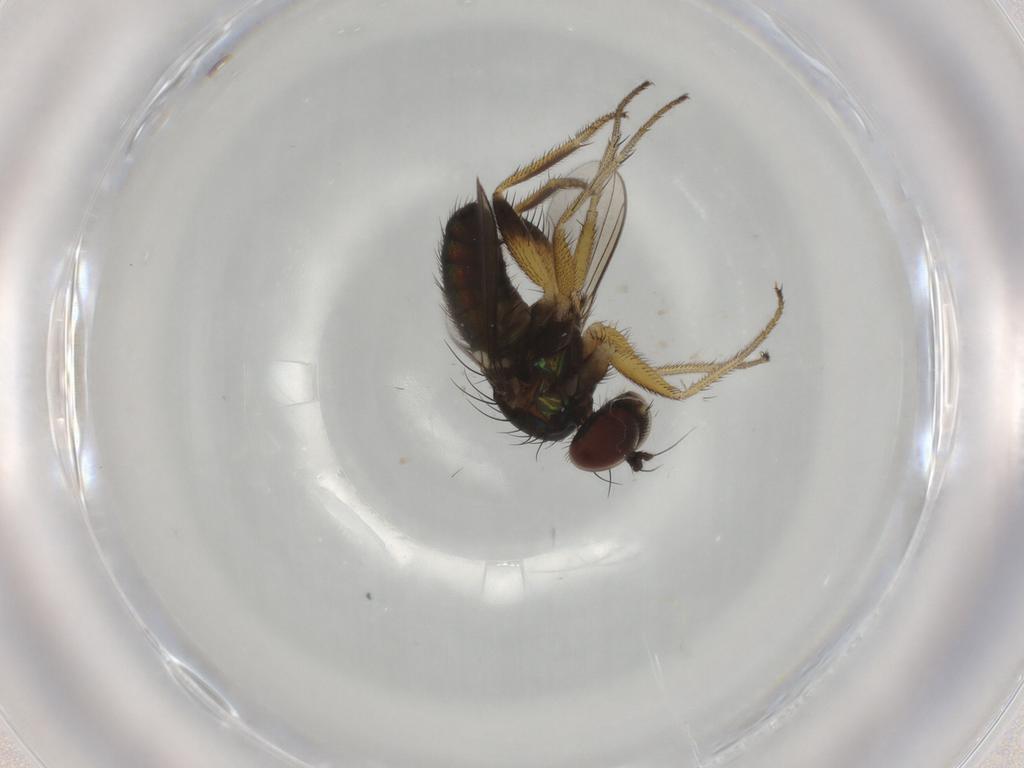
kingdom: Animalia
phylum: Arthropoda
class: Insecta
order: Diptera
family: Dolichopodidae
